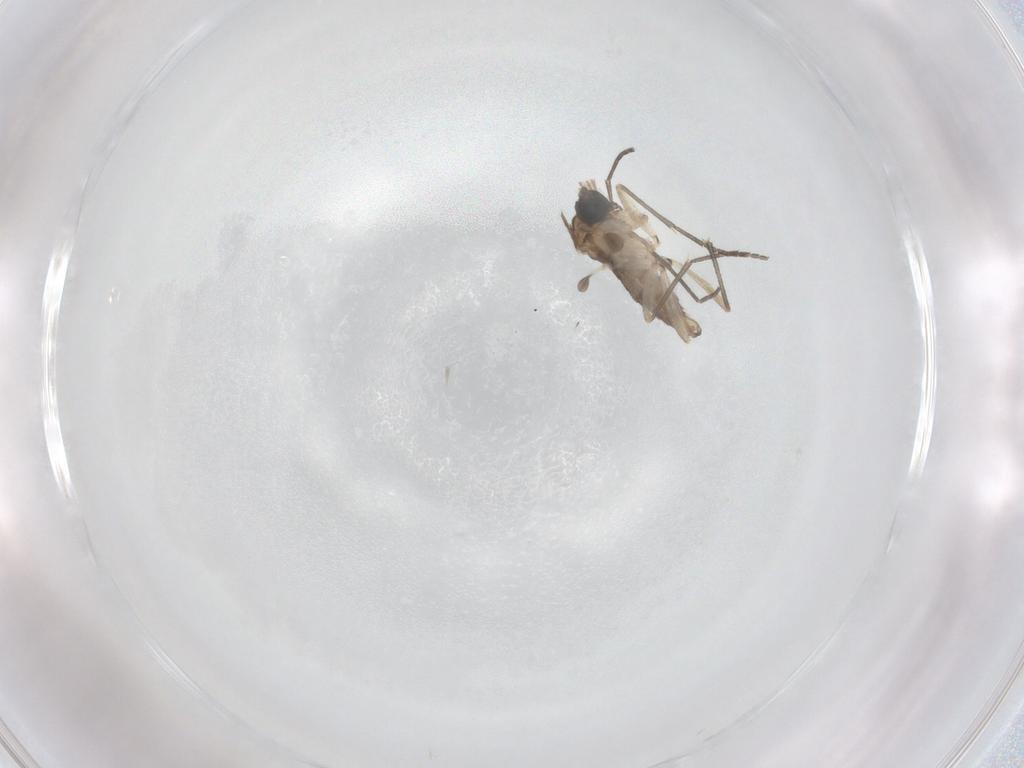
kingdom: Animalia
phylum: Arthropoda
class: Insecta
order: Diptera
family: Sciaridae
